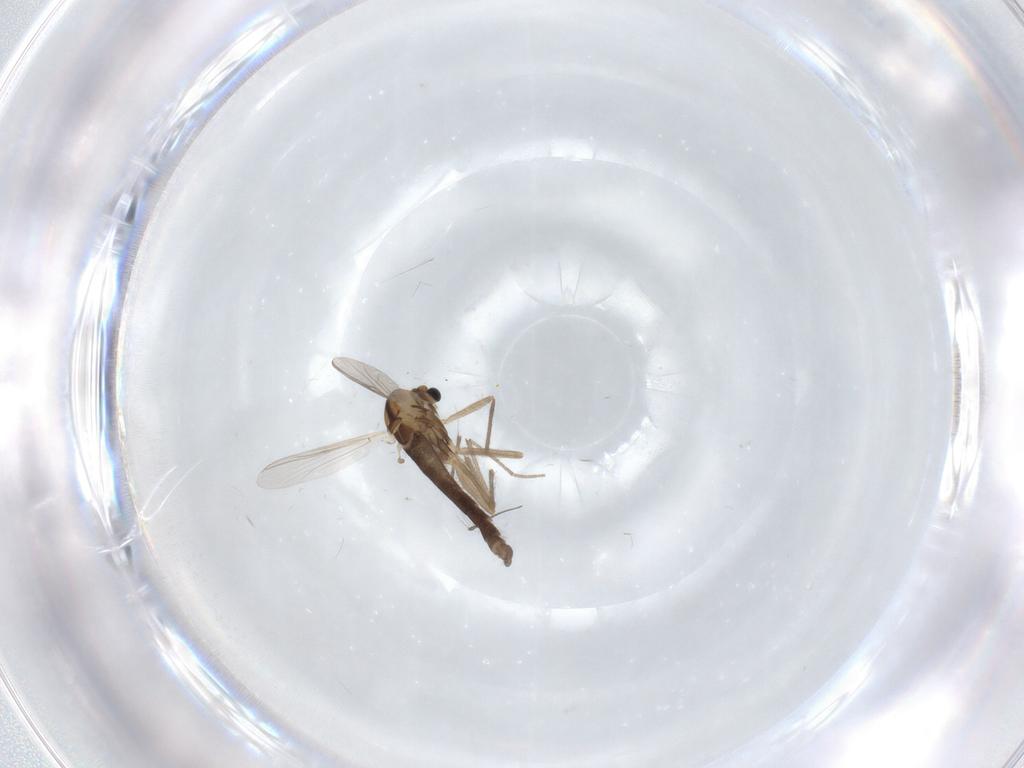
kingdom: Animalia
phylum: Arthropoda
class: Insecta
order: Diptera
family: Chironomidae
